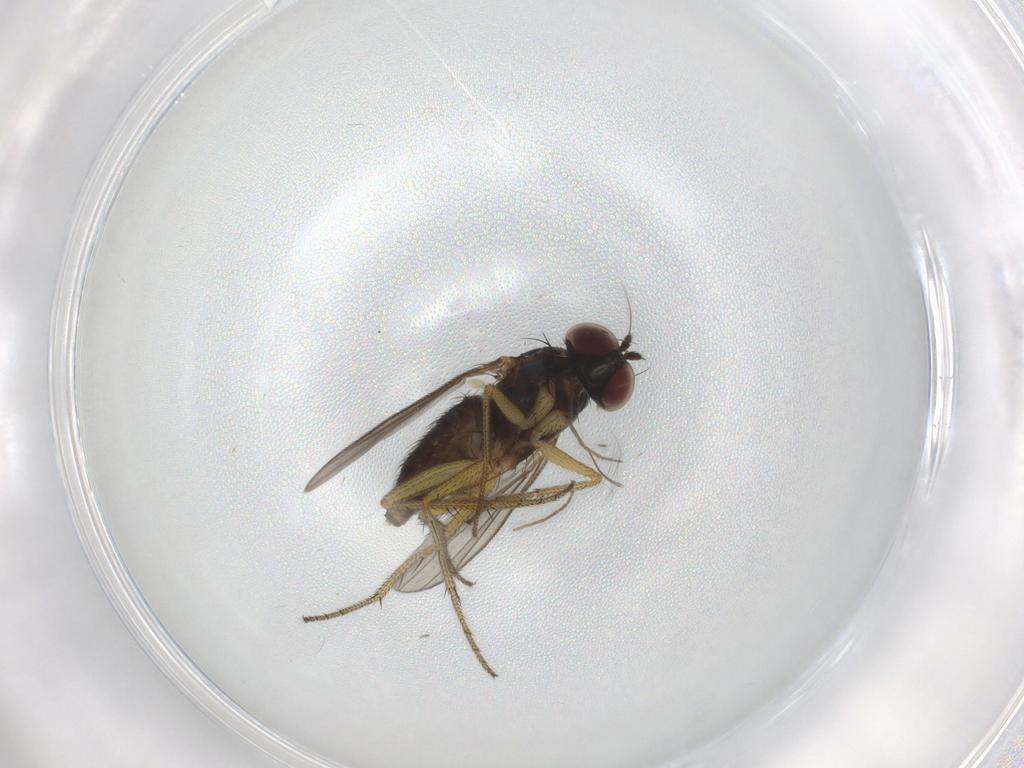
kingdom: Animalia
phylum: Arthropoda
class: Insecta
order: Diptera
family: Chironomidae
